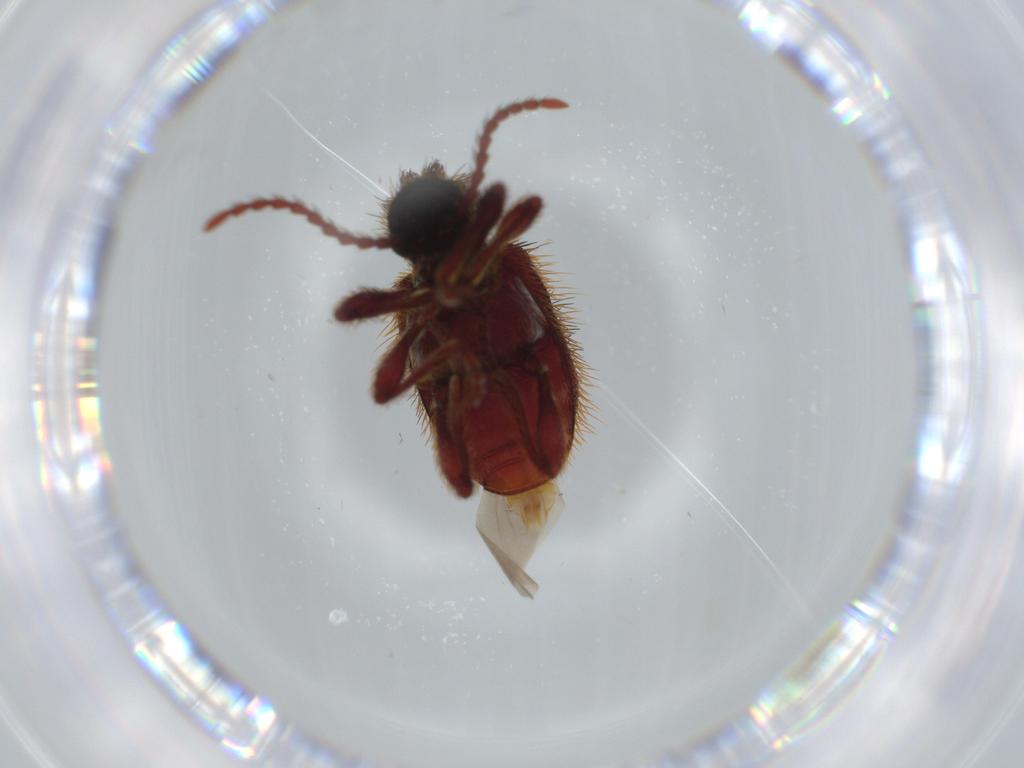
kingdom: Animalia
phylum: Arthropoda
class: Insecta
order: Coleoptera
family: Ptinidae
